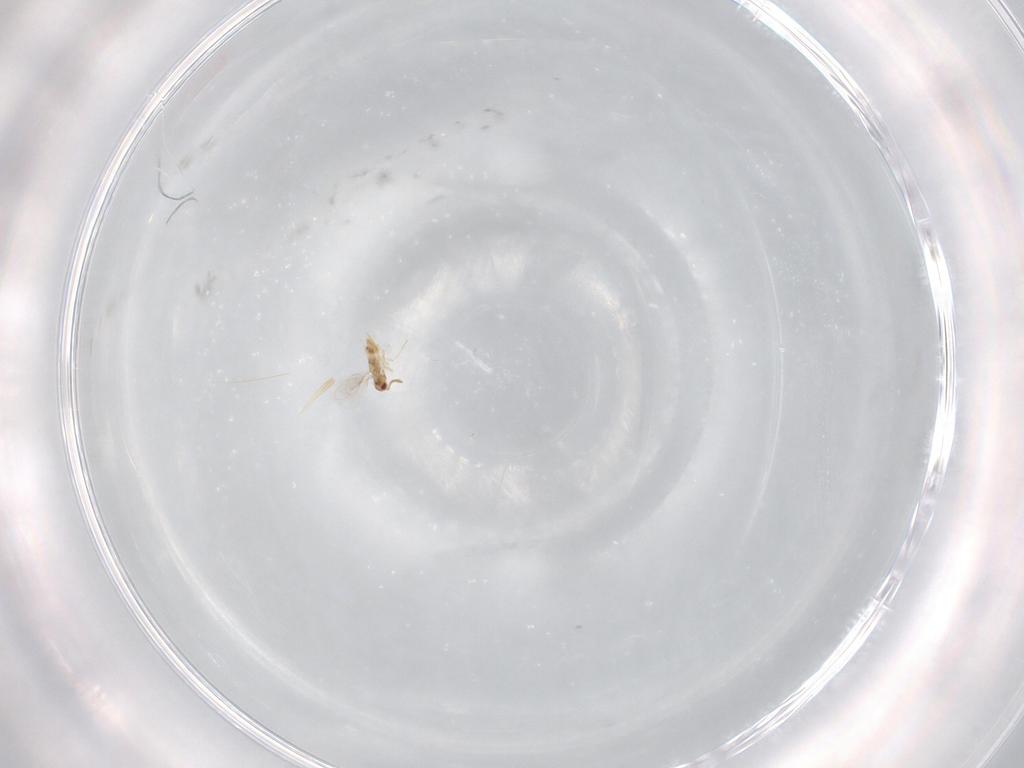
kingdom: Animalia
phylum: Arthropoda
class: Insecta
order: Hymenoptera
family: Aphelinidae
